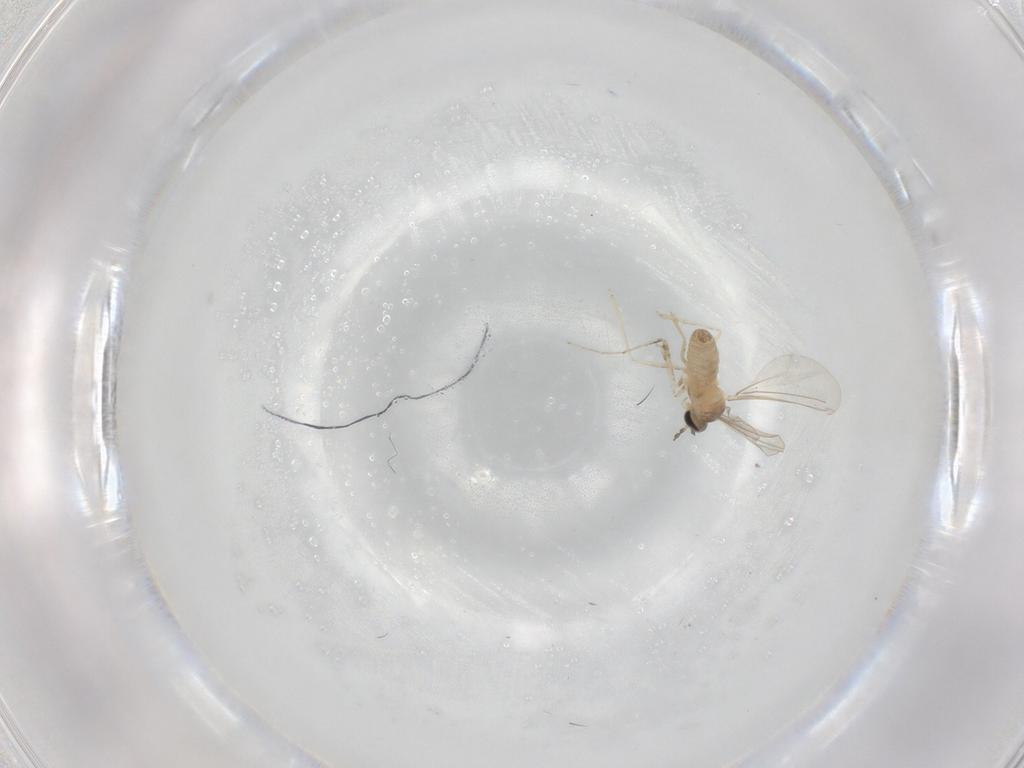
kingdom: Animalia
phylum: Arthropoda
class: Insecta
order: Diptera
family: Cecidomyiidae
